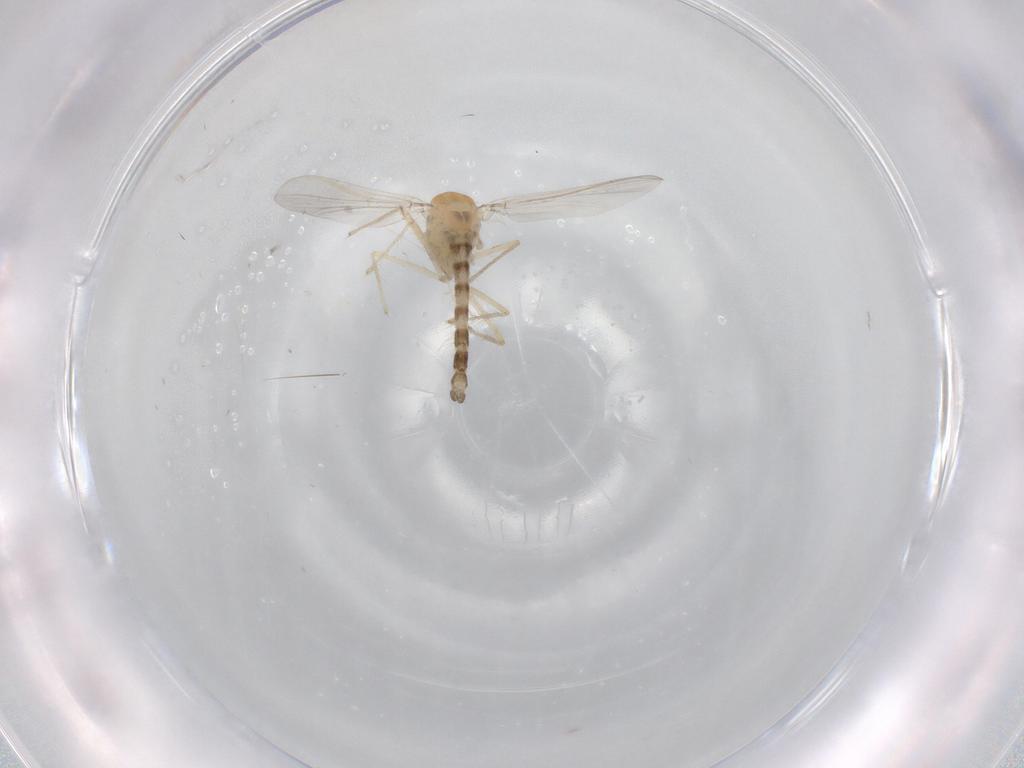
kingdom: Animalia
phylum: Arthropoda
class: Insecta
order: Diptera
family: Chironomidae
